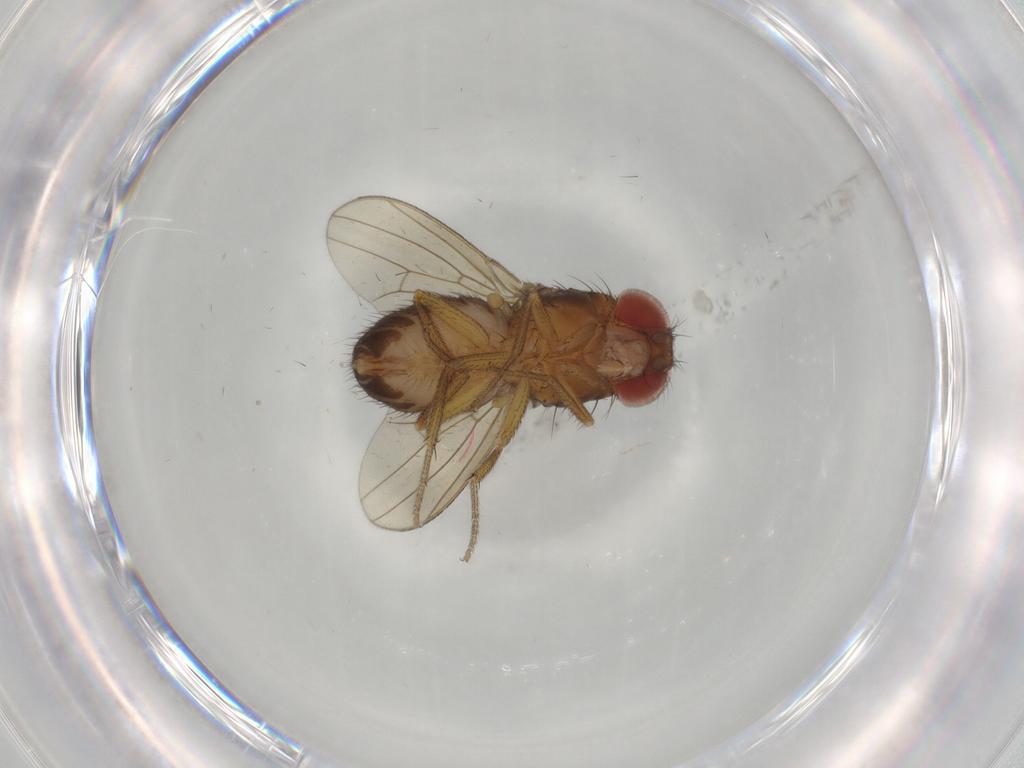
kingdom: Animalia
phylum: Arthropoda
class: Insecta
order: Diptera
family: Drosophilidae
